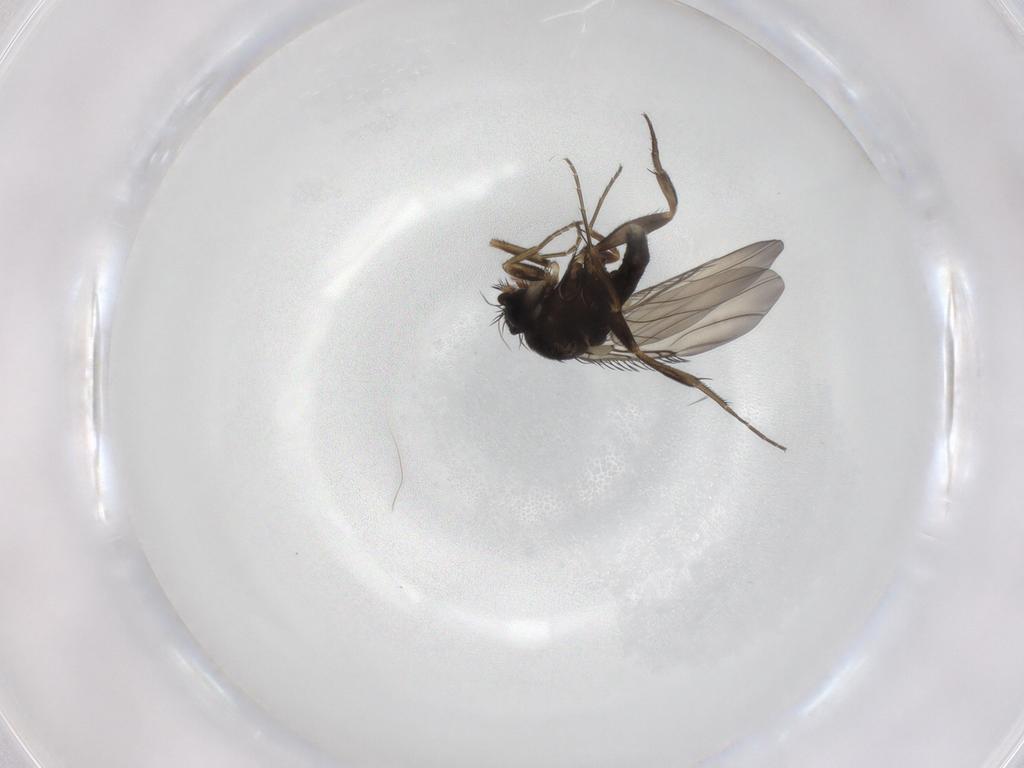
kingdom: Animalia
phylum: Arthropoda
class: Insecta
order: Diptera
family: Phoridae
